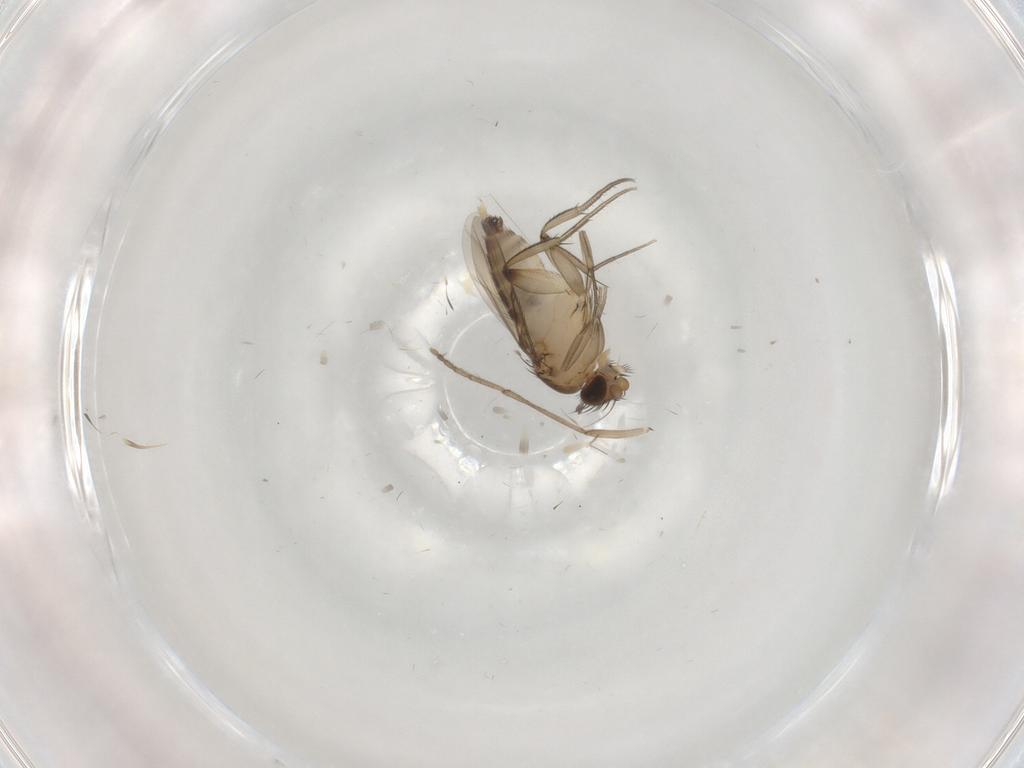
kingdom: Animalia
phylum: Arthropoda
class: Insecta
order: Diptera
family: Psychodidae
